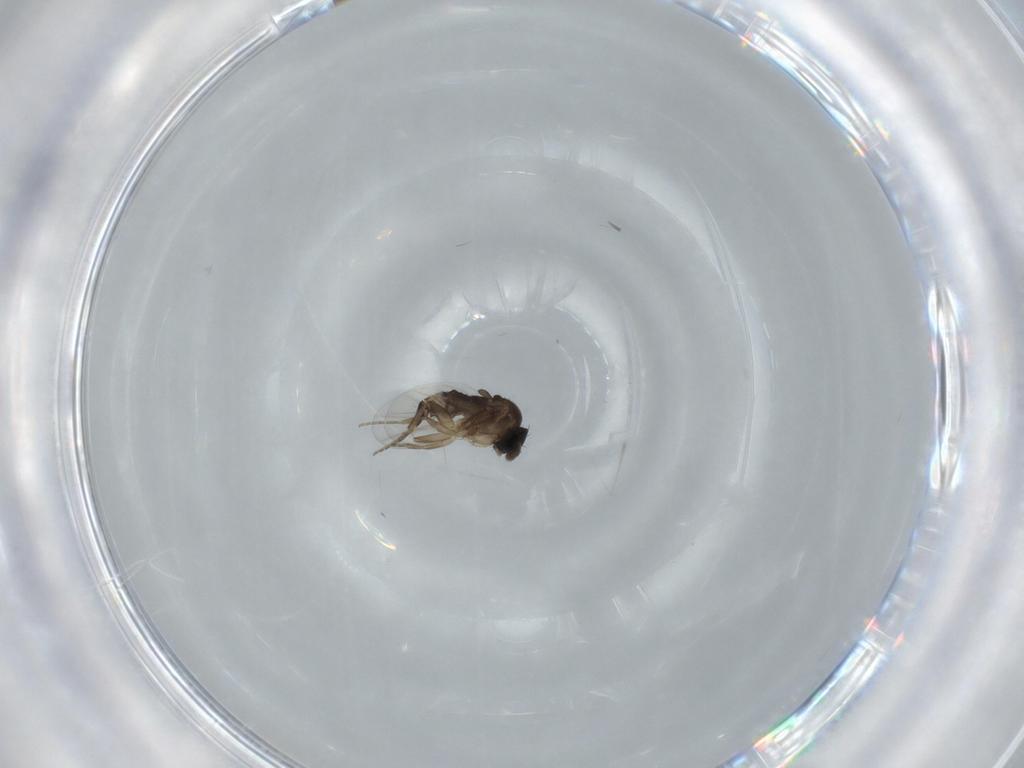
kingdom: Animalia
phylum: Arthropoda
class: Insecta
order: Diptera
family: Phoridae
